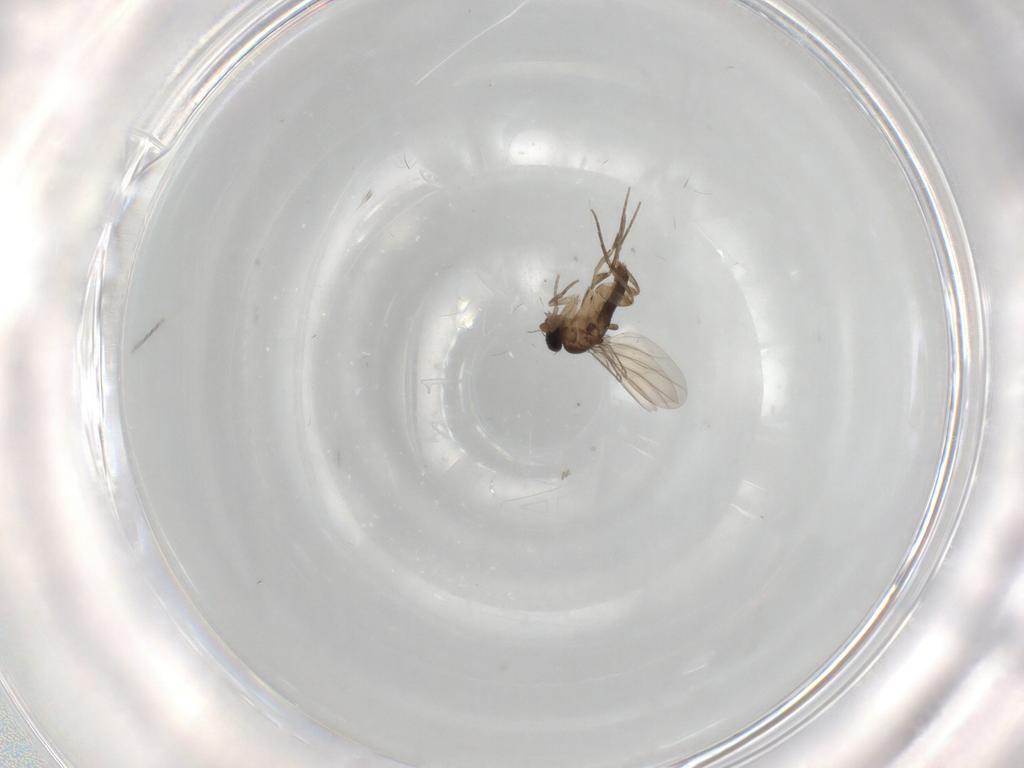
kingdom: Animalia
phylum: Arthropoda
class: Insecta
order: Diptera
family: Phoridae
